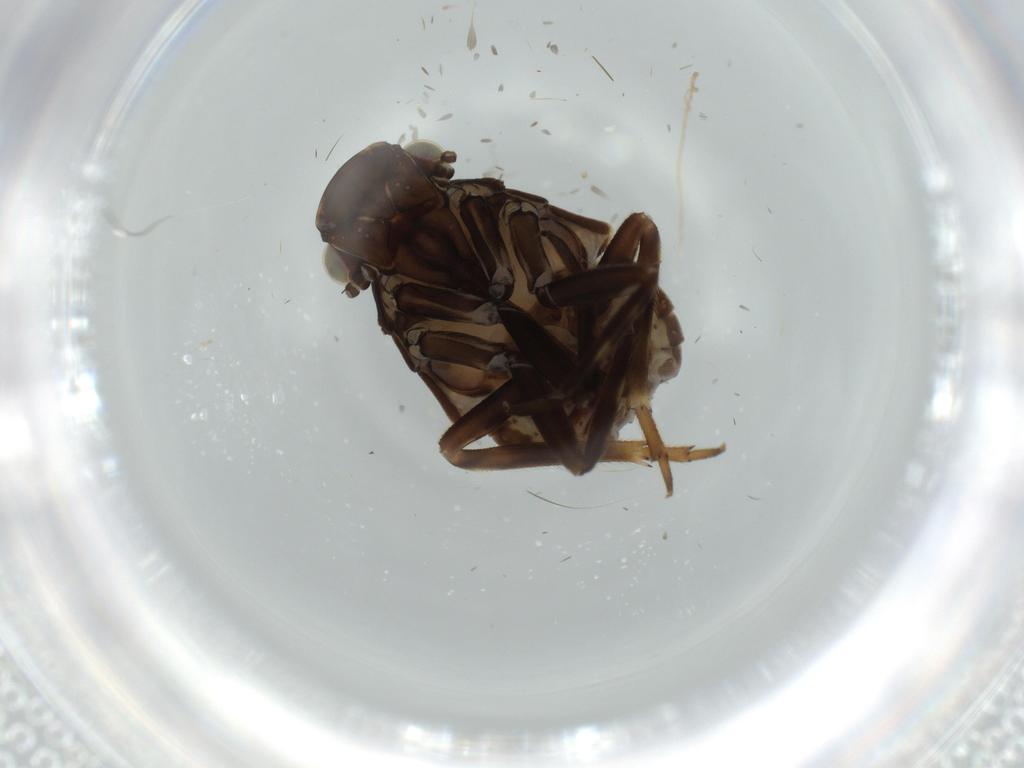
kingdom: Animalia
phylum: Arthropoda
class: Insecta
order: Hemiptera
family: Fulgoridae
